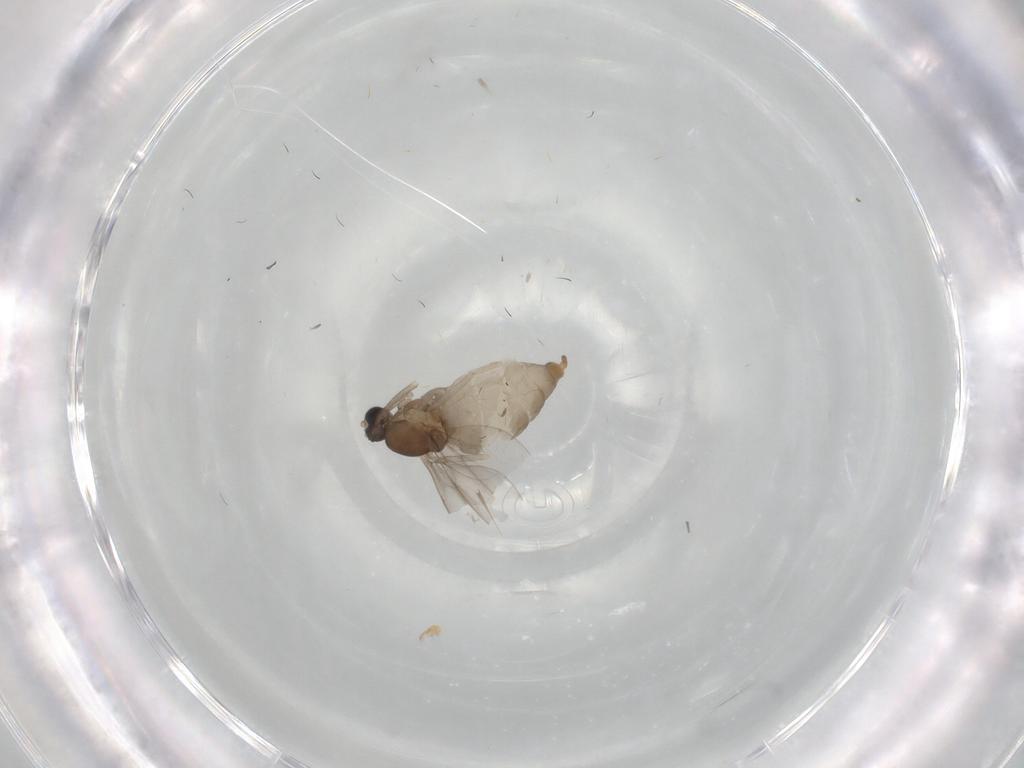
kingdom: Animalia
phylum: Arthropoda
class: Insecta
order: Diptera
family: Cecidomyiidae
